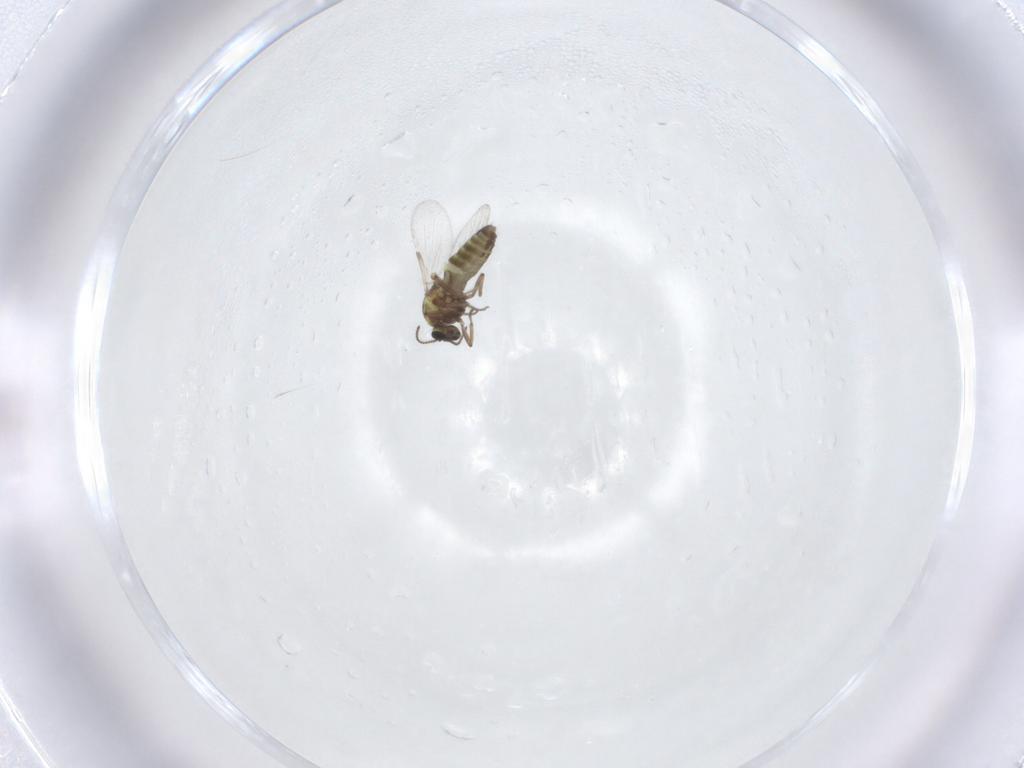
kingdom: Animalia
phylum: Arthropoda
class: Insecta
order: Diptera
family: Ceratopogonidae
